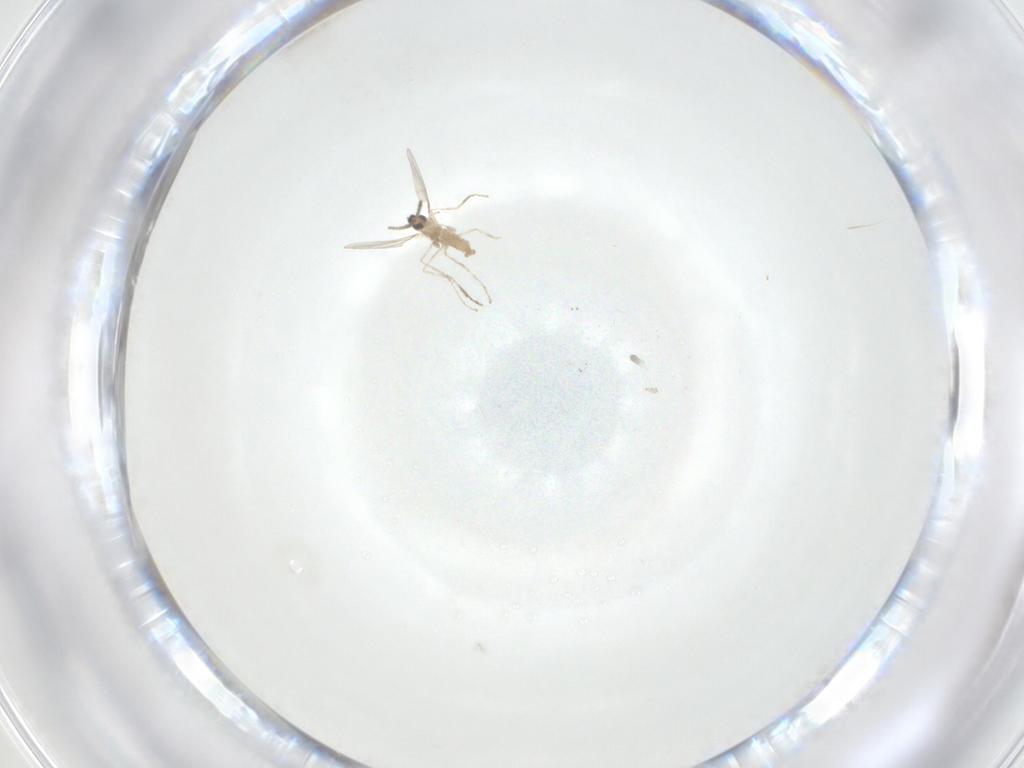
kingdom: Animalia
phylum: Arthropoda
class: Insecta
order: Diptera
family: Cecidomyiidae
